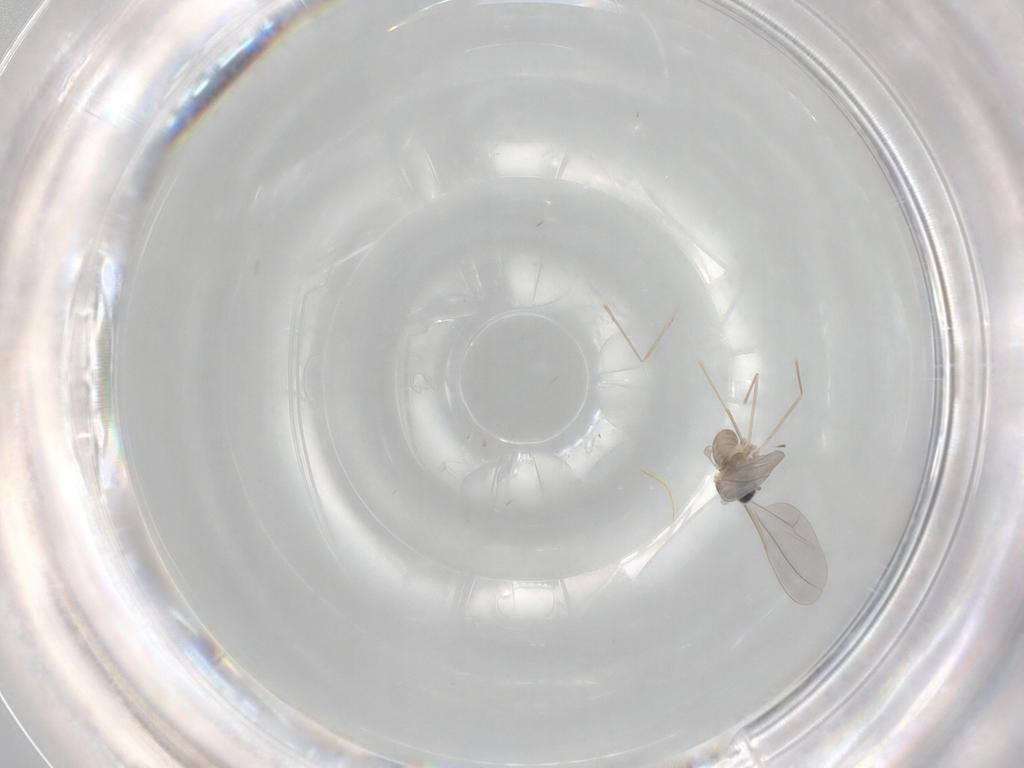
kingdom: Animalia
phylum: Arthropoda
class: Insecta
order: Diptera
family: Cecidomyiidae
